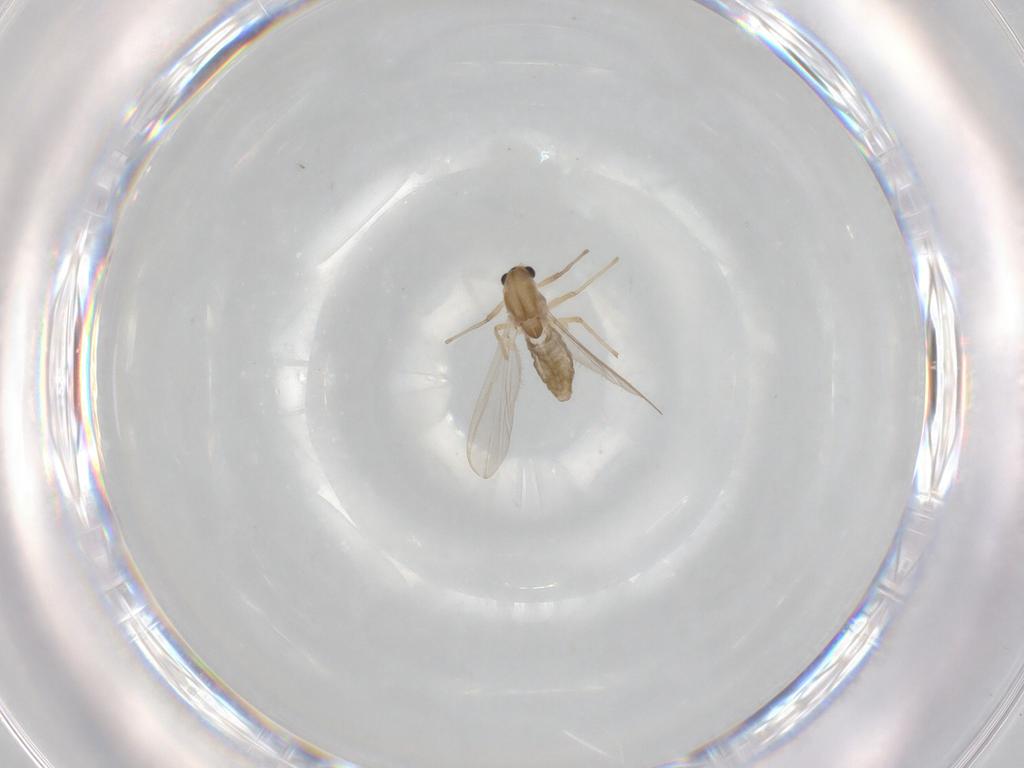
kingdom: Animalia
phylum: Arthropoda
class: Insecta
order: Diptera
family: Chironomidae
